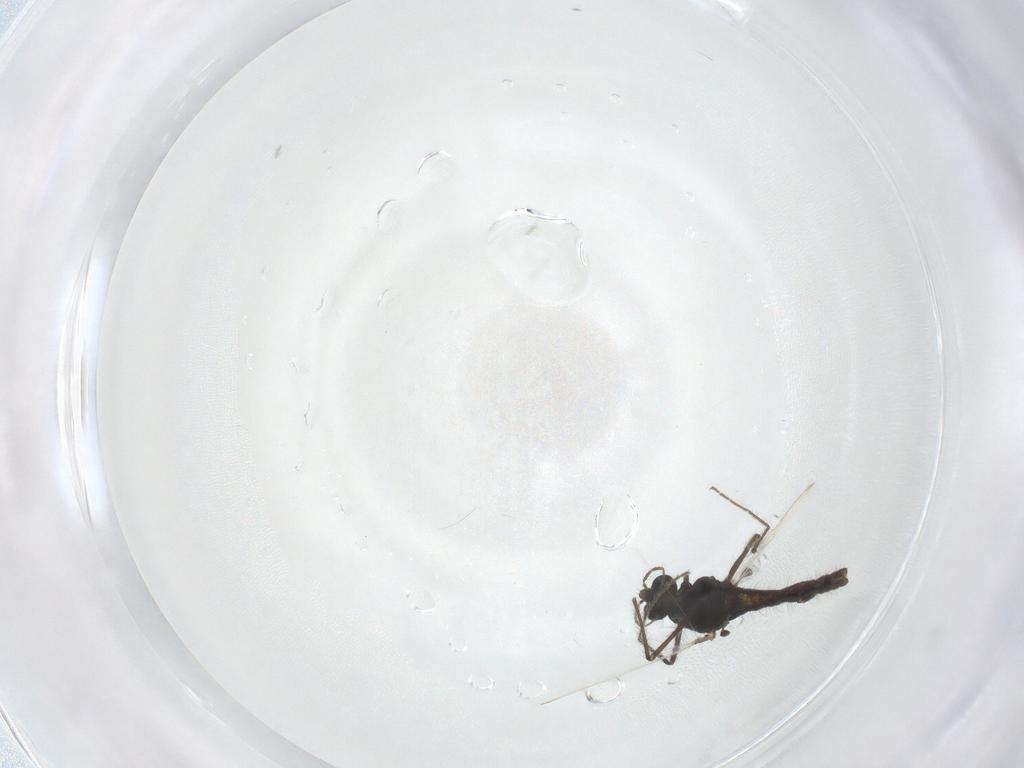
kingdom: Animalia
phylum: Arthropoda
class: Insecta
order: Diptera
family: Chironomidae
